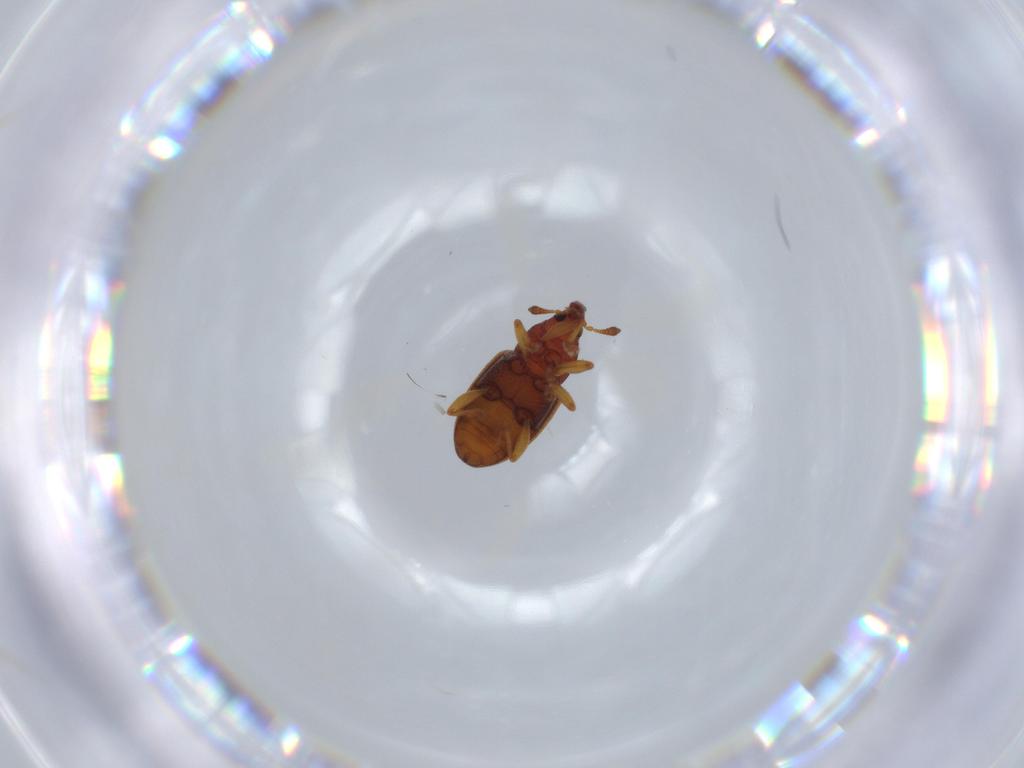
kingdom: Animalia
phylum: Arthropoda
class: Insecta
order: Coleoptera
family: Curculionidae
